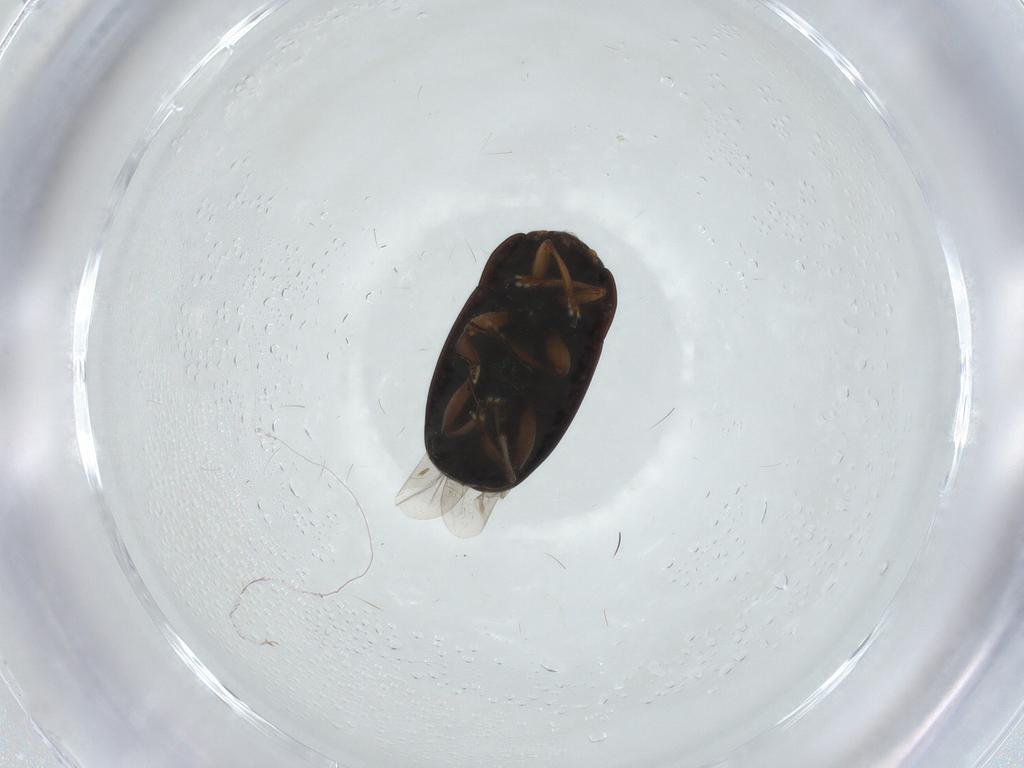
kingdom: Animalia
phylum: Arthropoda
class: Insecta
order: Coleoptera
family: Nitidulidae
